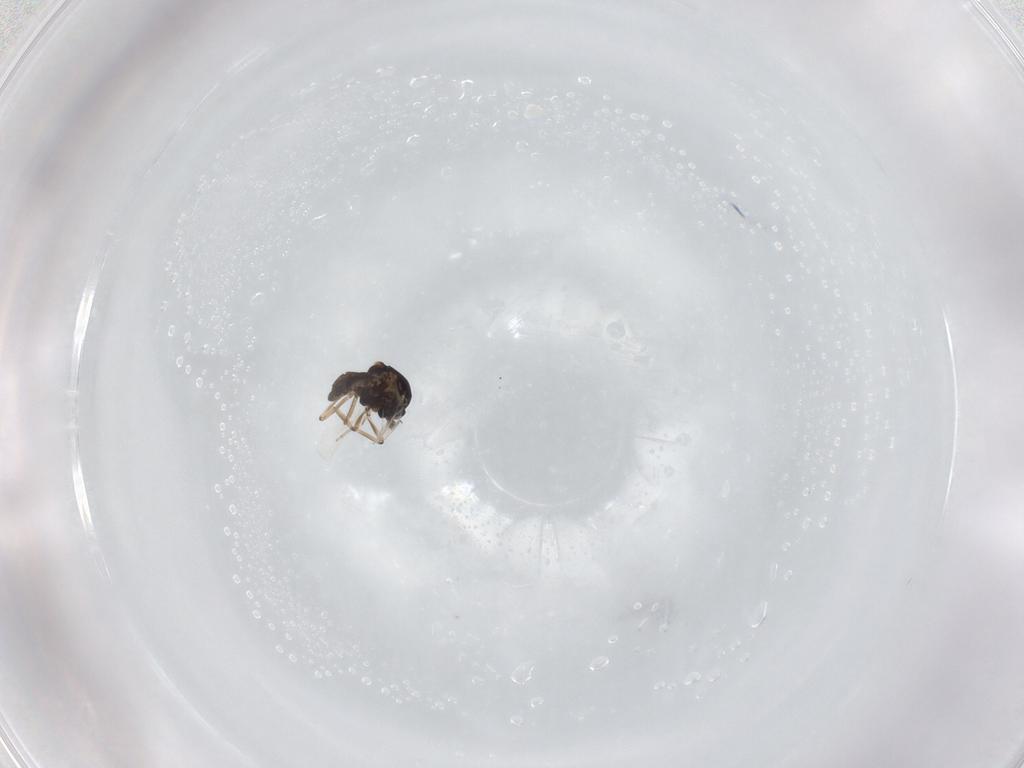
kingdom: Animalia
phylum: Arthropoda
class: Insecta
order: Diptera
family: Ceratopogonidae
